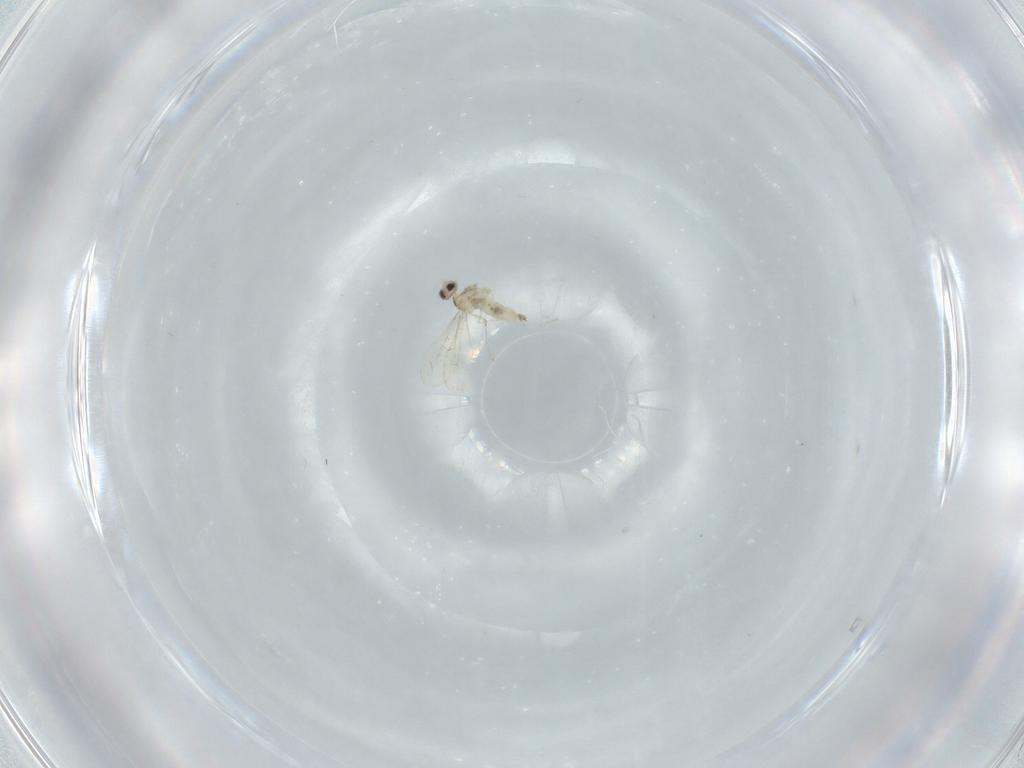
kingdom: Animalia
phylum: Arthropoda
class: Insecta
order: Diptera
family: Cecidomyiidae
